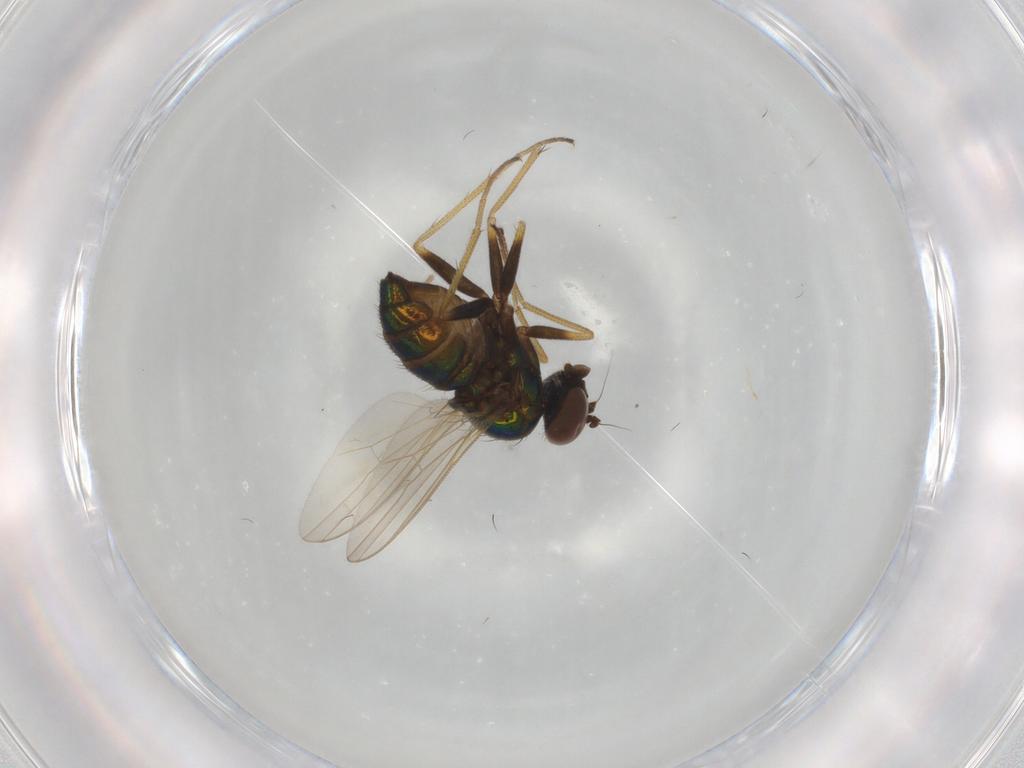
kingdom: Animalia
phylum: Arthropoda
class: Insecta
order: Diptera
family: Dolichopodidae
